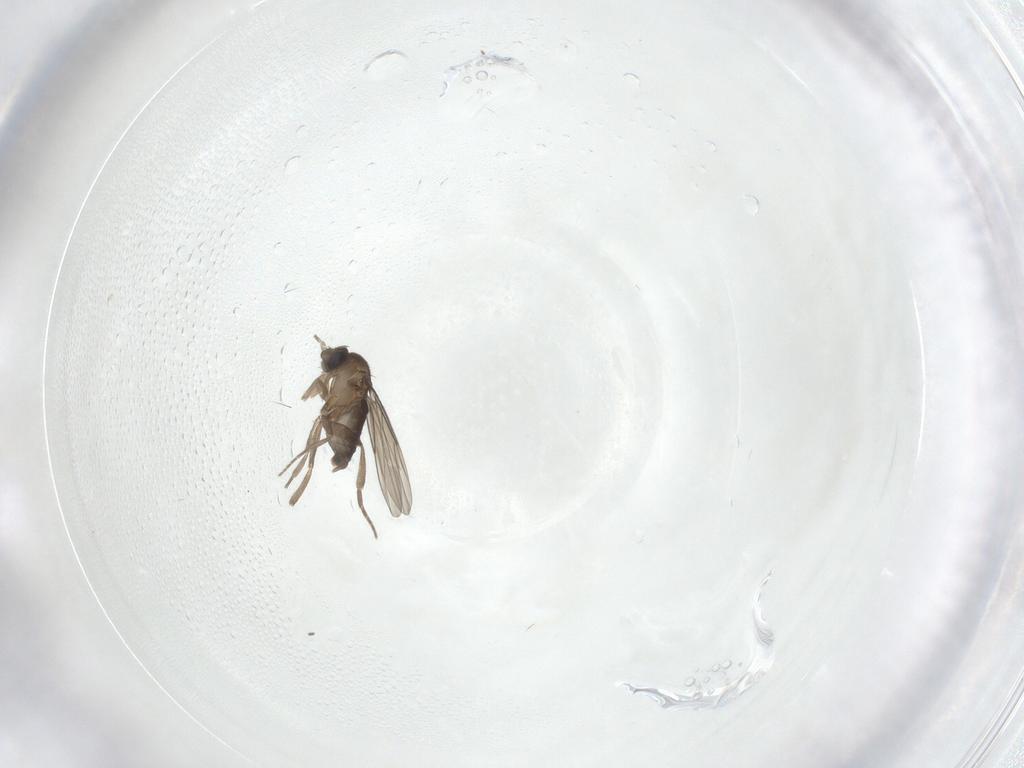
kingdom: Animalia
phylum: Arthropoda
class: Insecta
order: Diptera
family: Phoridae
